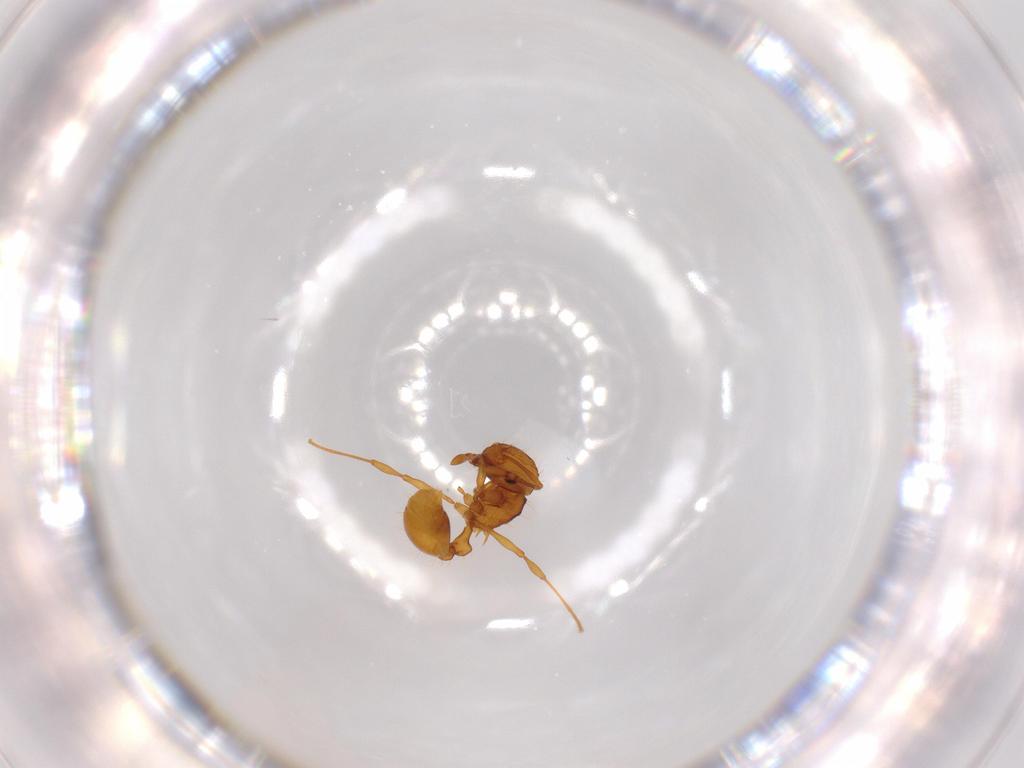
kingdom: Animalia
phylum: Arthropoda
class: Insecta
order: Hymenoptera
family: Formicidae
